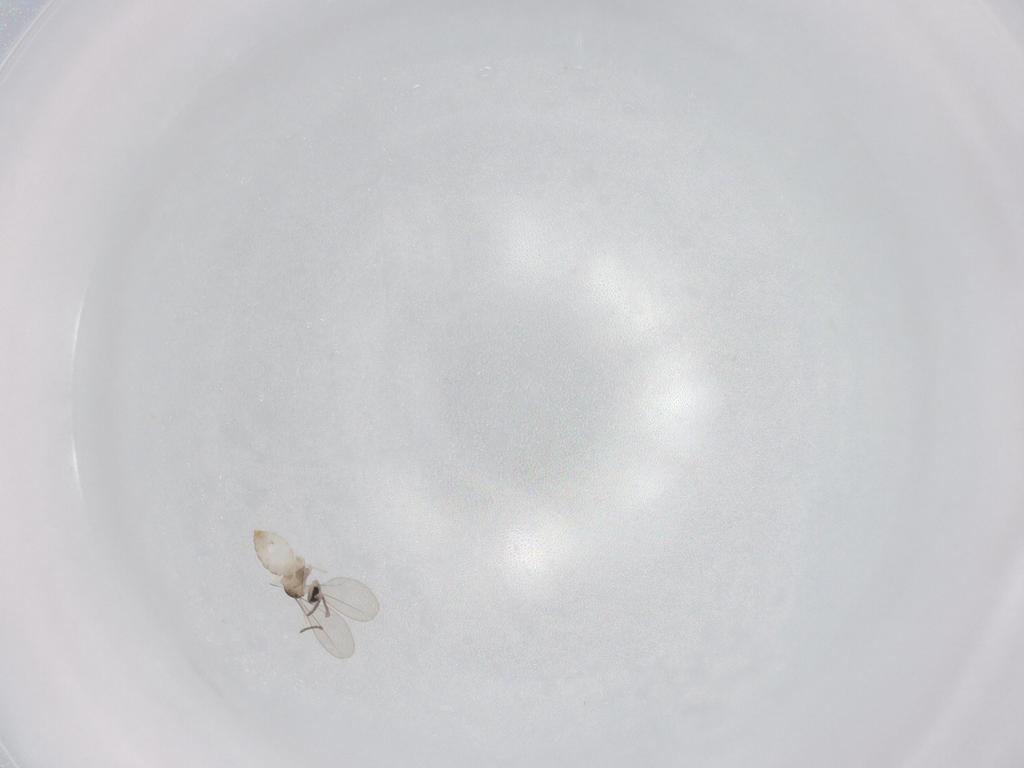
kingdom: Animalia
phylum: Arthropoda
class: Insecta
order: Diptera
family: Cecidomyiidae
